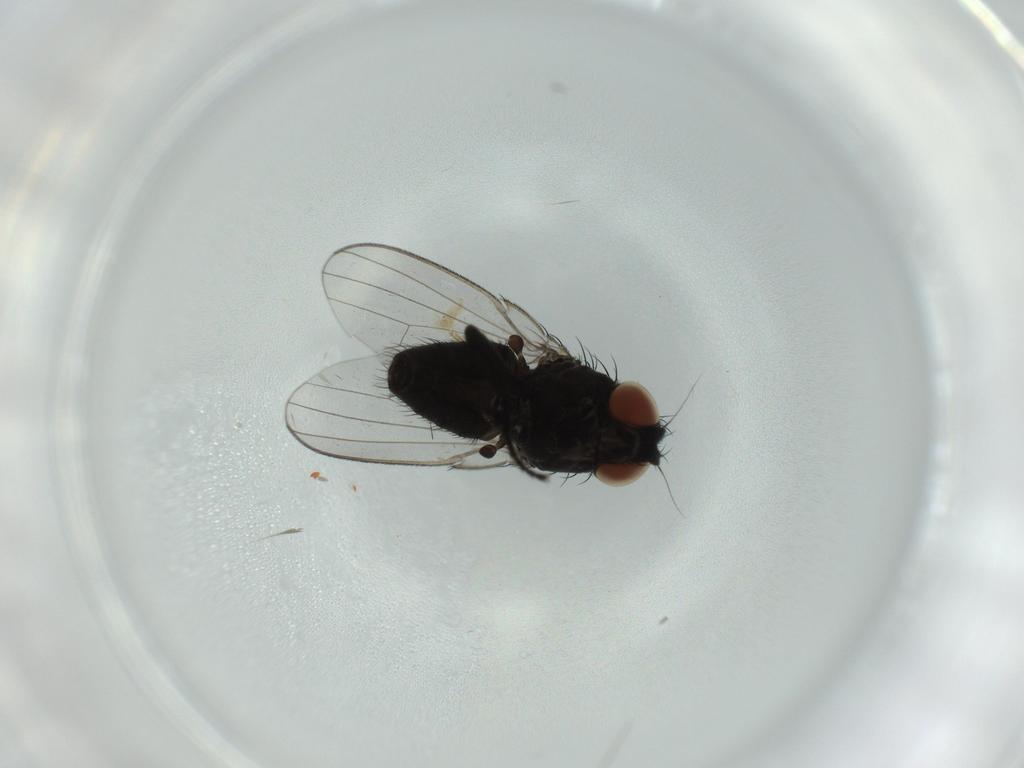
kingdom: Animalia
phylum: Arthropoda
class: Insecta
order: Diptera
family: Milichiidae
